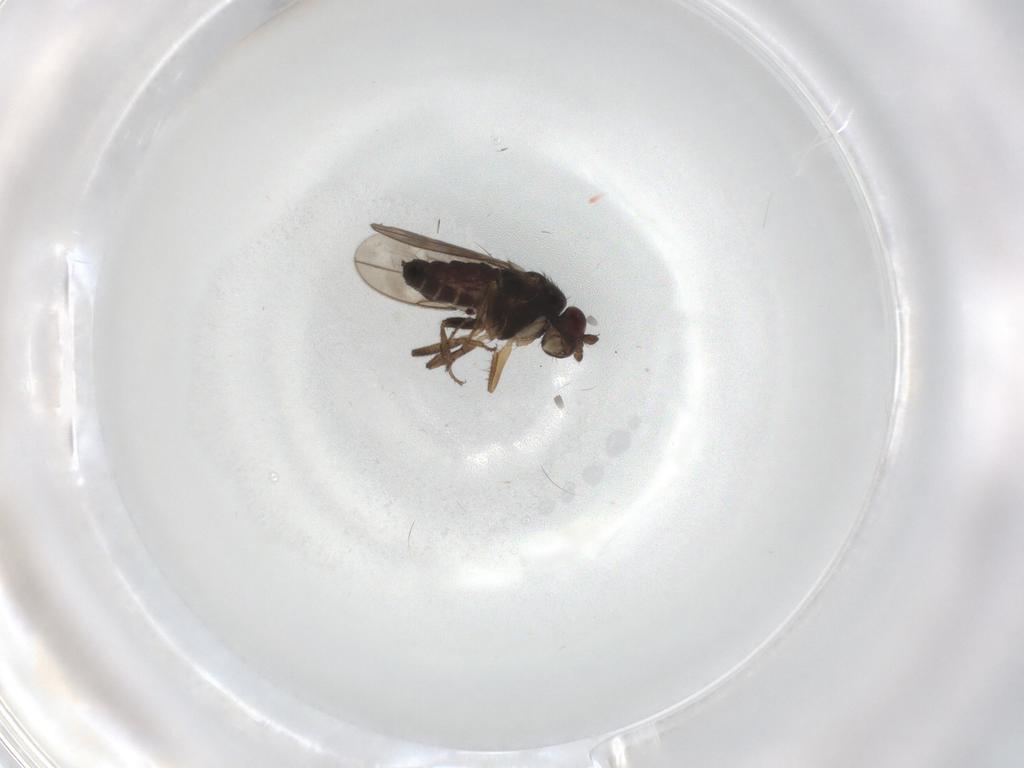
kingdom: Animalia
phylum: Arthropoda
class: Insecta
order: Diptera
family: Sphaeroceridae
